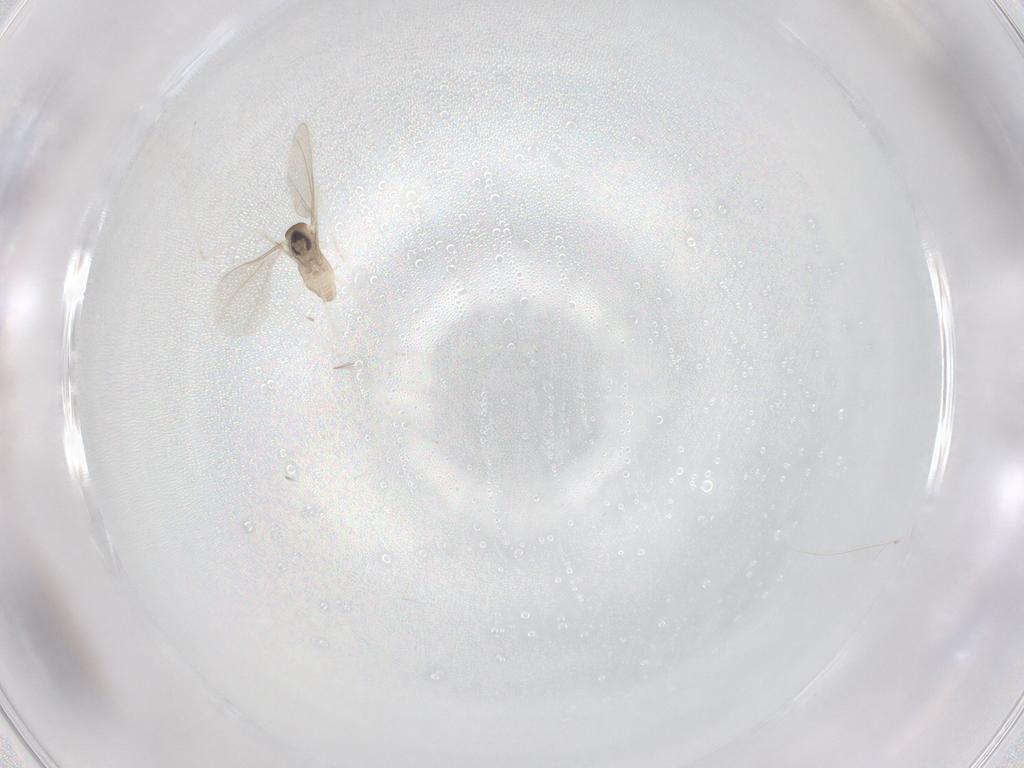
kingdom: Animalia
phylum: Arthropoda
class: Insecta
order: Diptera
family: Cecidomyiidae
